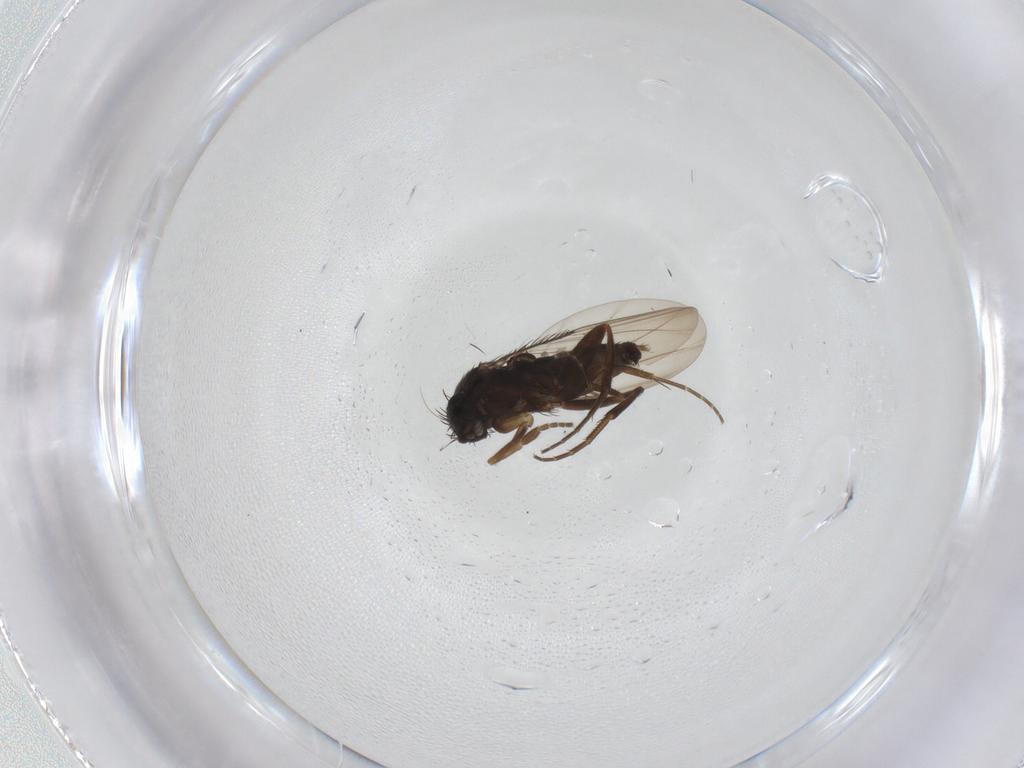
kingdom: Animalia
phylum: Arthropoda
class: Insecta
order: Diptera
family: Phoridae
